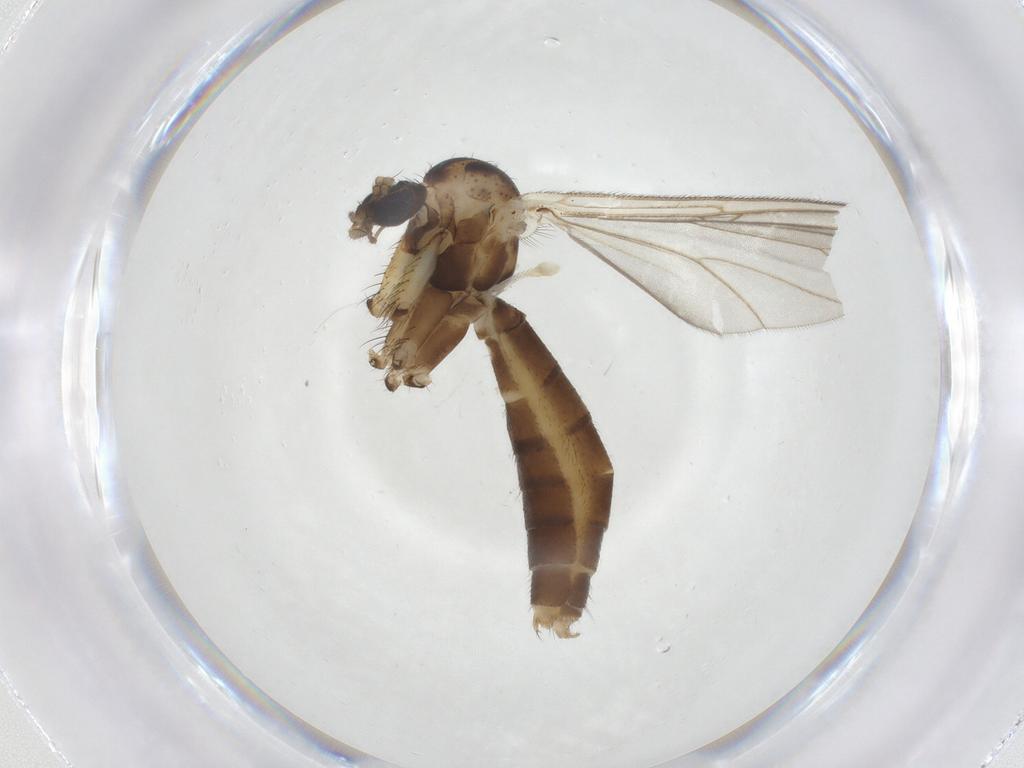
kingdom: Animalia
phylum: Arthropoda
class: Insecta
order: Diptera
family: Mycetophilidae
